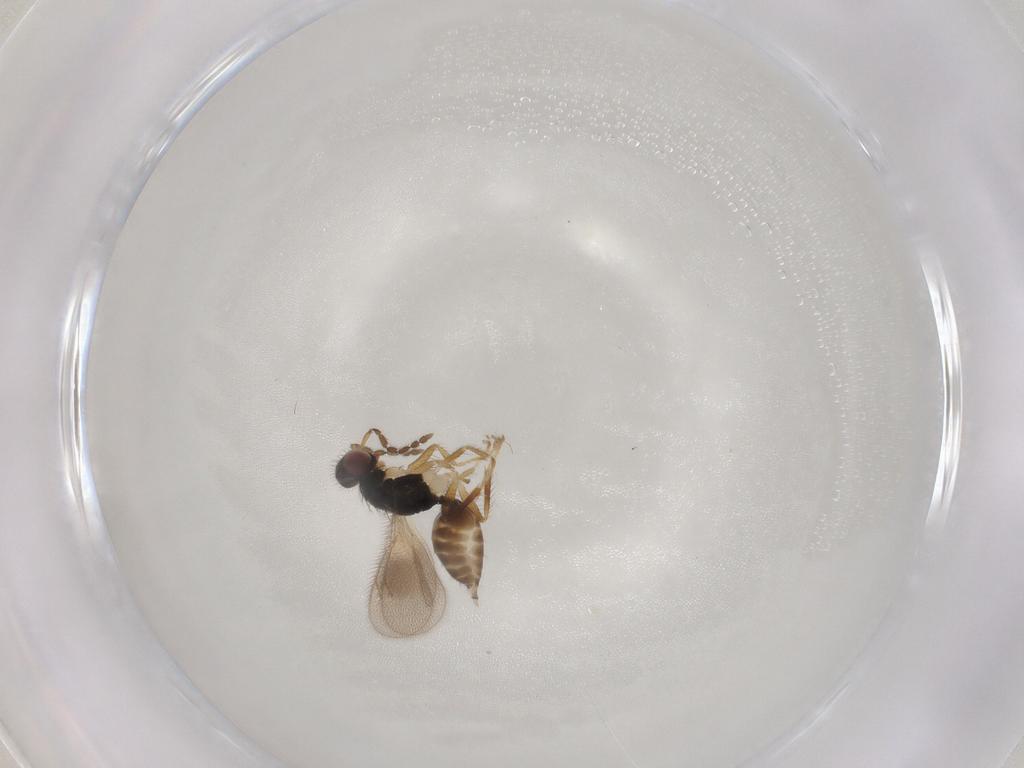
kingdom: Animalia
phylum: Arthropoda
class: Insecta
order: Hymenoptera
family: Eulophidae
